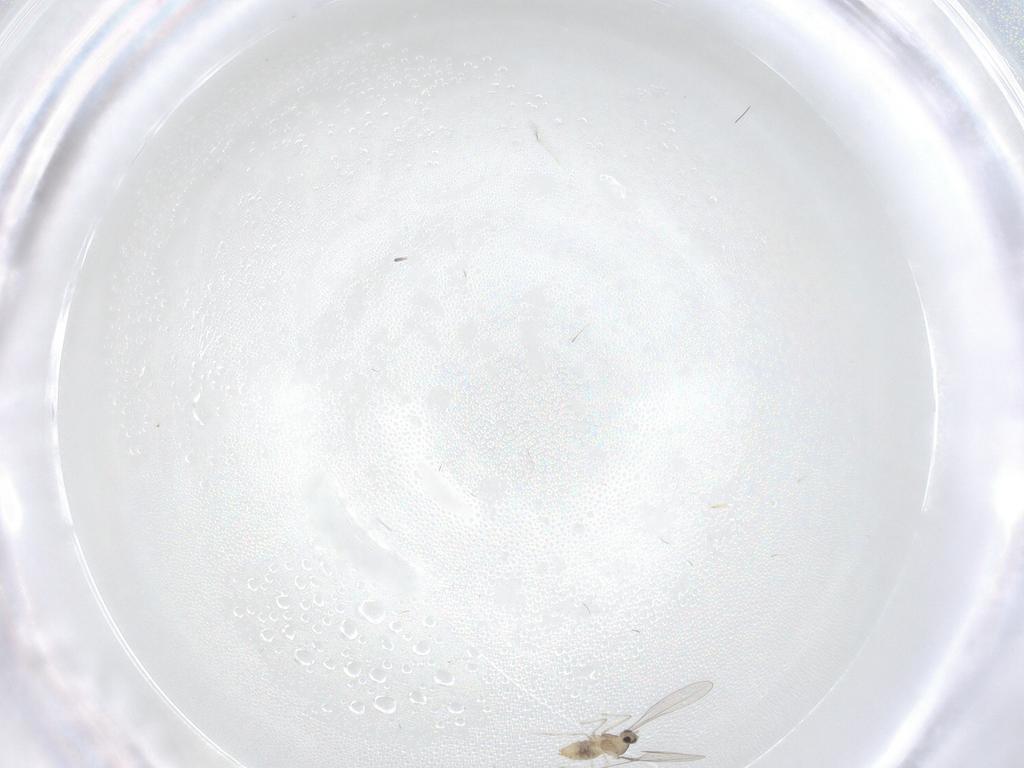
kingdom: Animalia
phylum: Arthropoda
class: Insecta
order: Diptera
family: Cecidomyiidae
